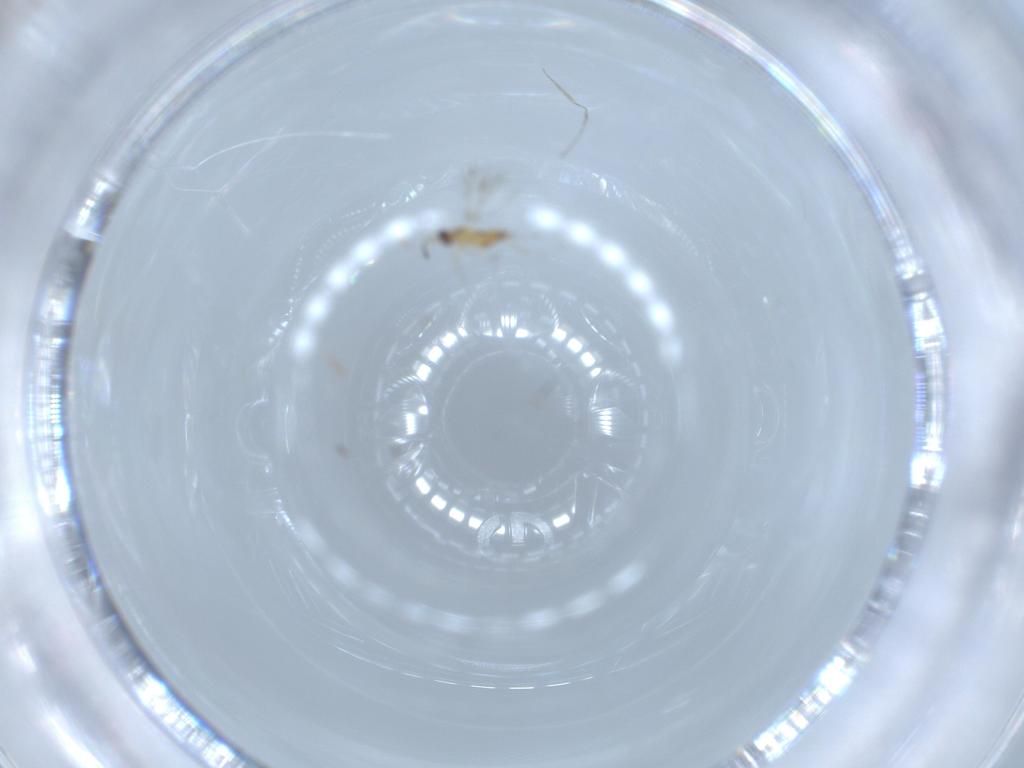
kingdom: Animalia
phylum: Arthropoda
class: Insecta
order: Hymenoptera
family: Mymaridae
